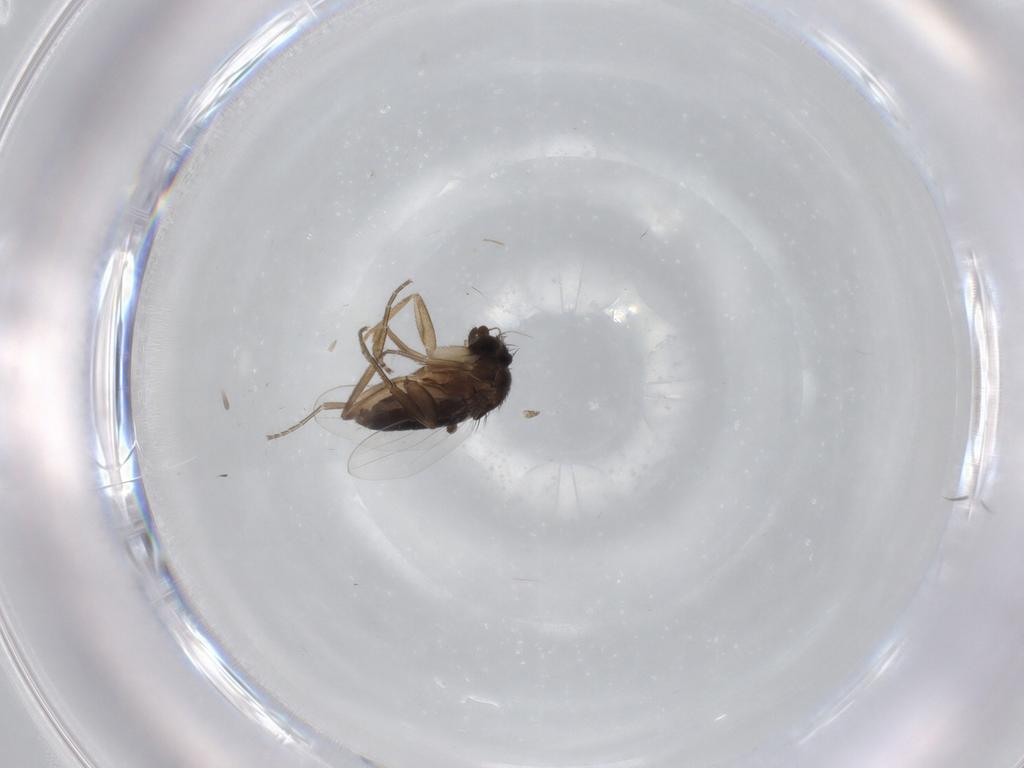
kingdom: Animalia
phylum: Arthropoda
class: Insecta
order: Diptera
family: Phoridae
